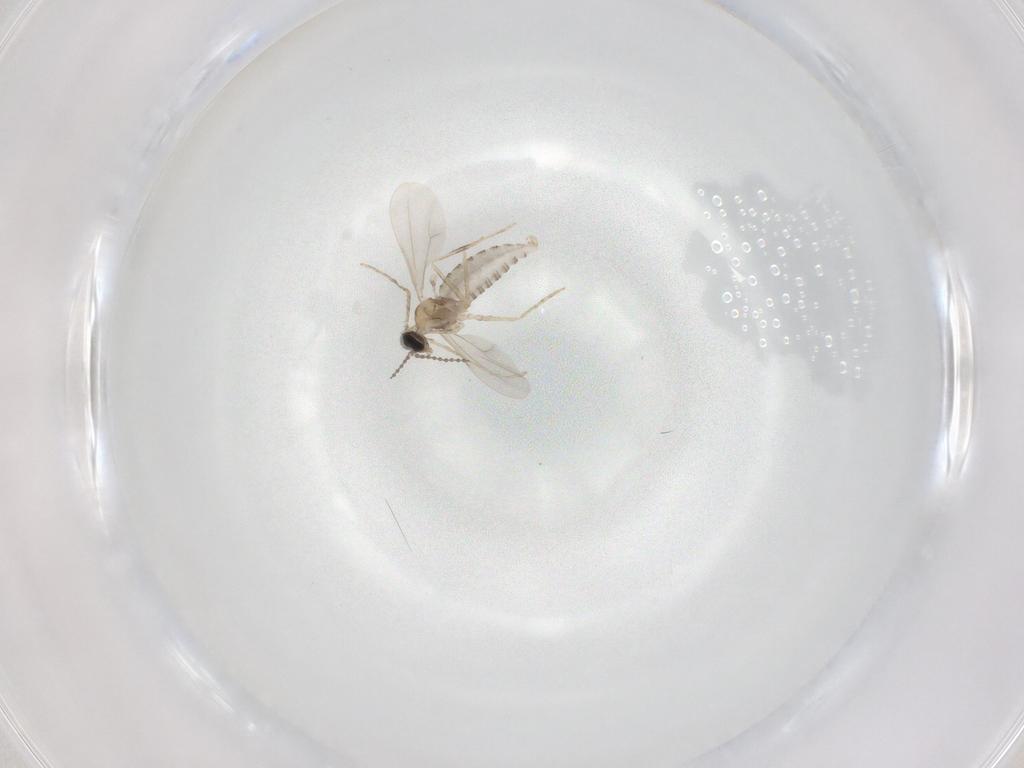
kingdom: Animalia
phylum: Arthropoda
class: Insecta
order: Diptera
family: Cecidomyiidae
